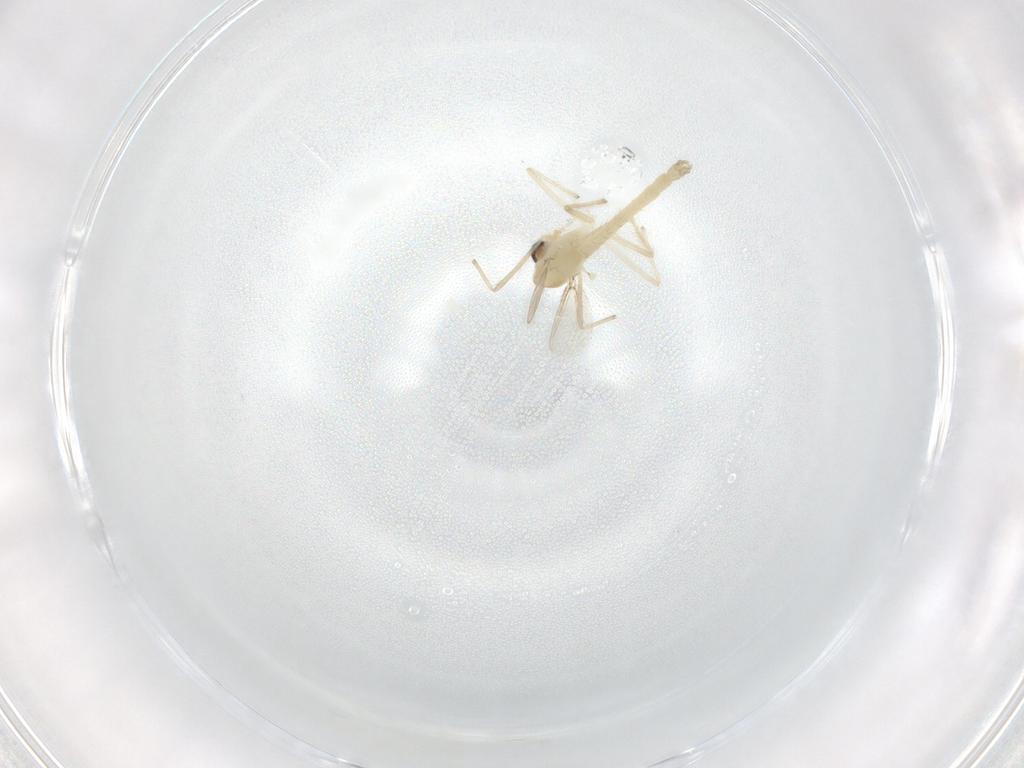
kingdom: Animalia
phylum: Arthropoda
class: Insecta
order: Diptera
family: Chironomidae
